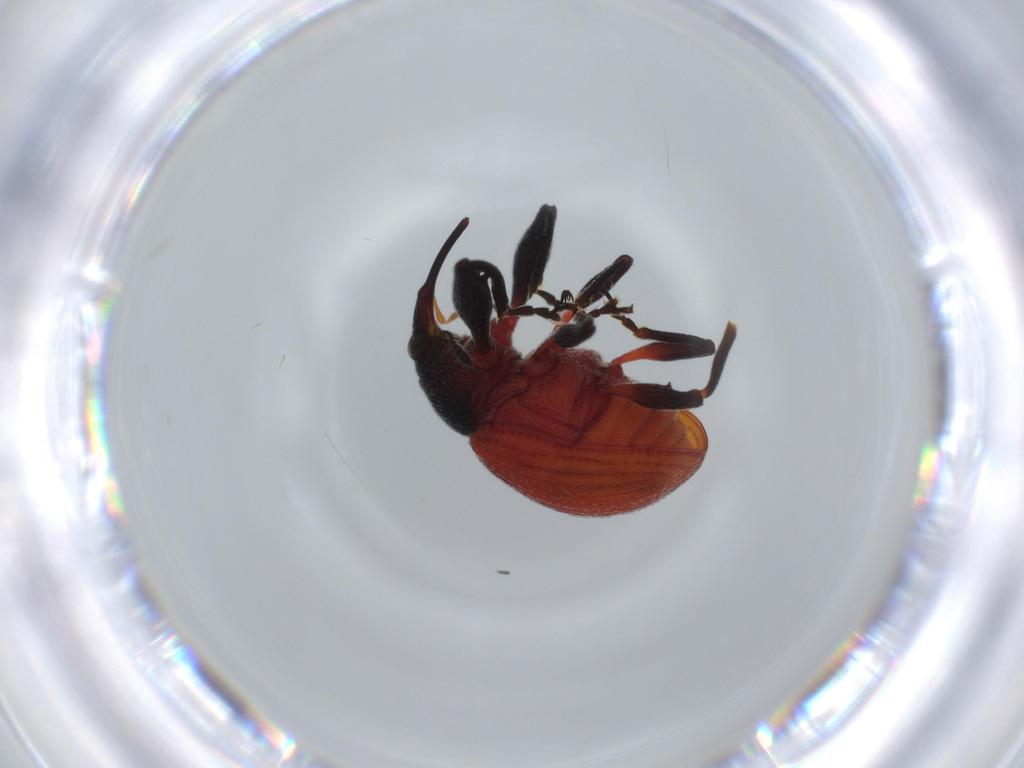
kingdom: Animalia
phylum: Arthropoda
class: Insecta
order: Coleoptera
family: Curculionidae
